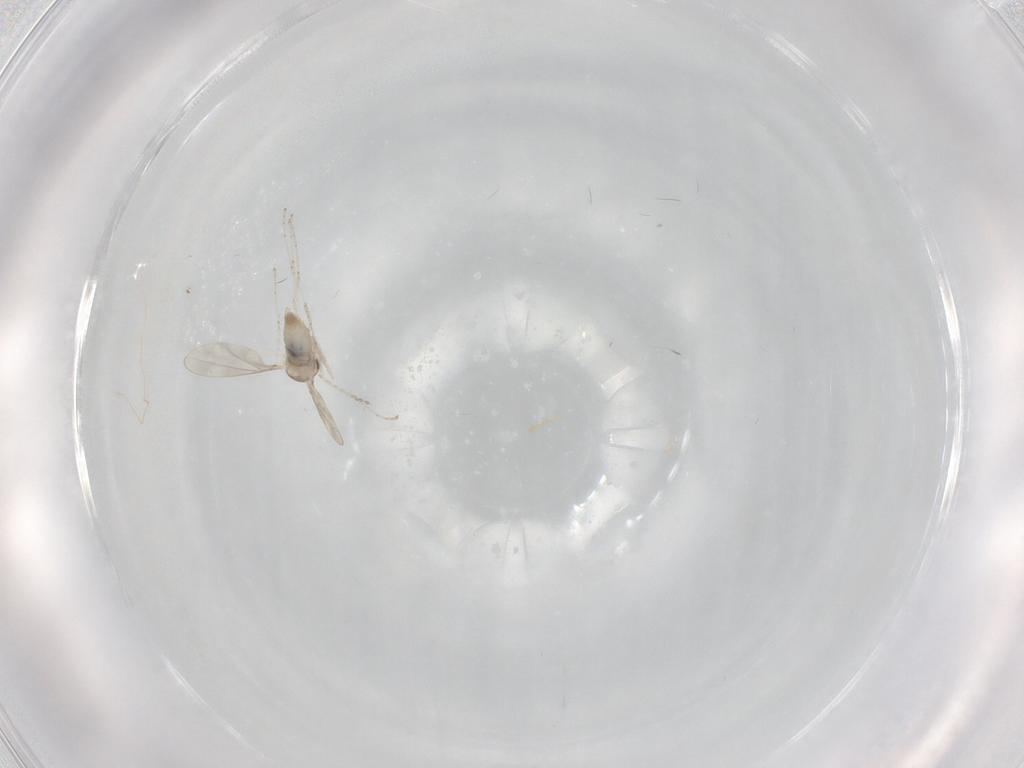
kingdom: Animalia
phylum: Arthropoda
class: Insecta
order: Diptera
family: Cecidomyiidae
